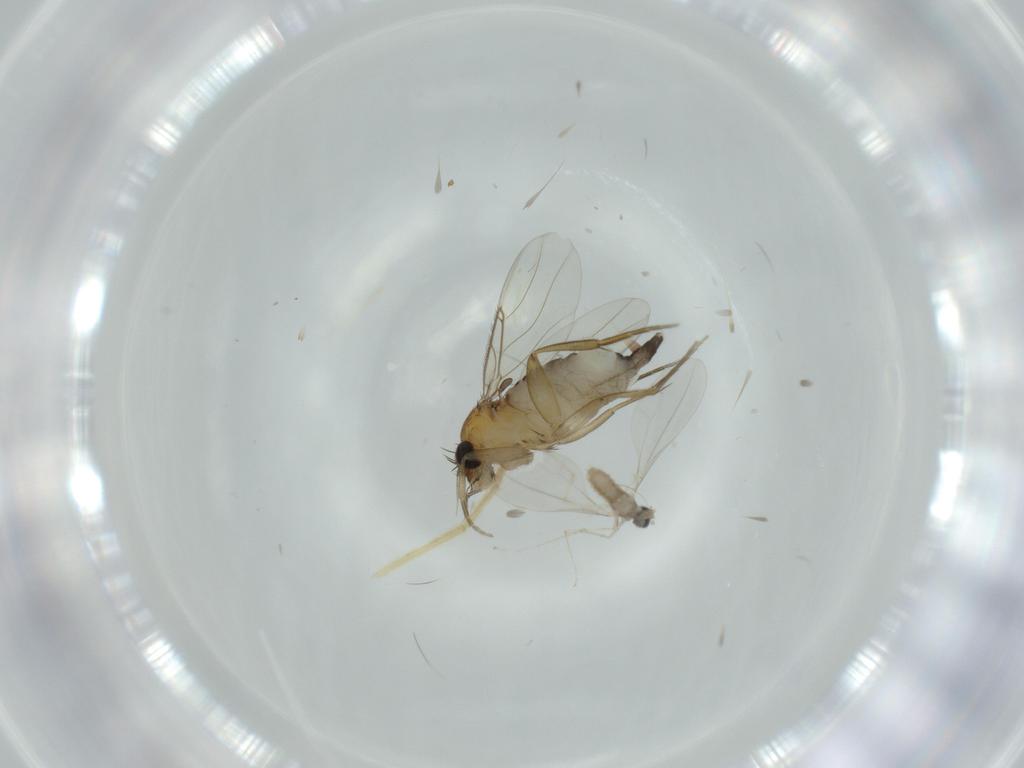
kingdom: Animalia
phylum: Arthropoda
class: Insecta
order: Diptera
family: Phoridae
